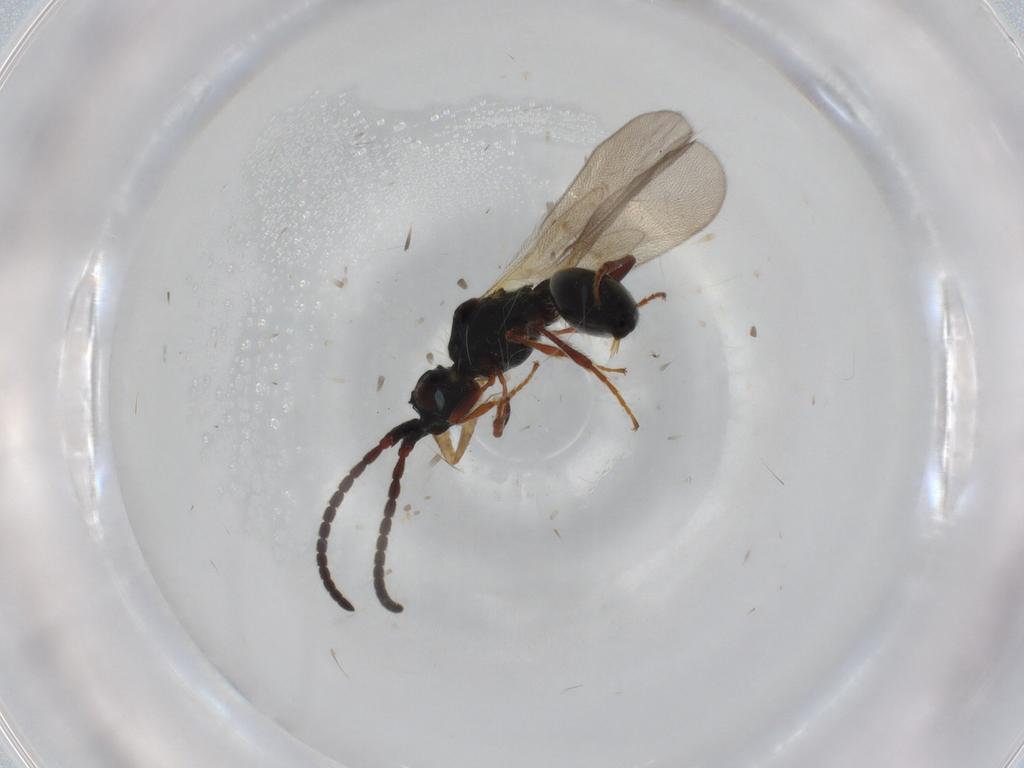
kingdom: Animalia
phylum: Arthropoda
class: Insecta
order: Hymenoptera
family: Diapriidae
